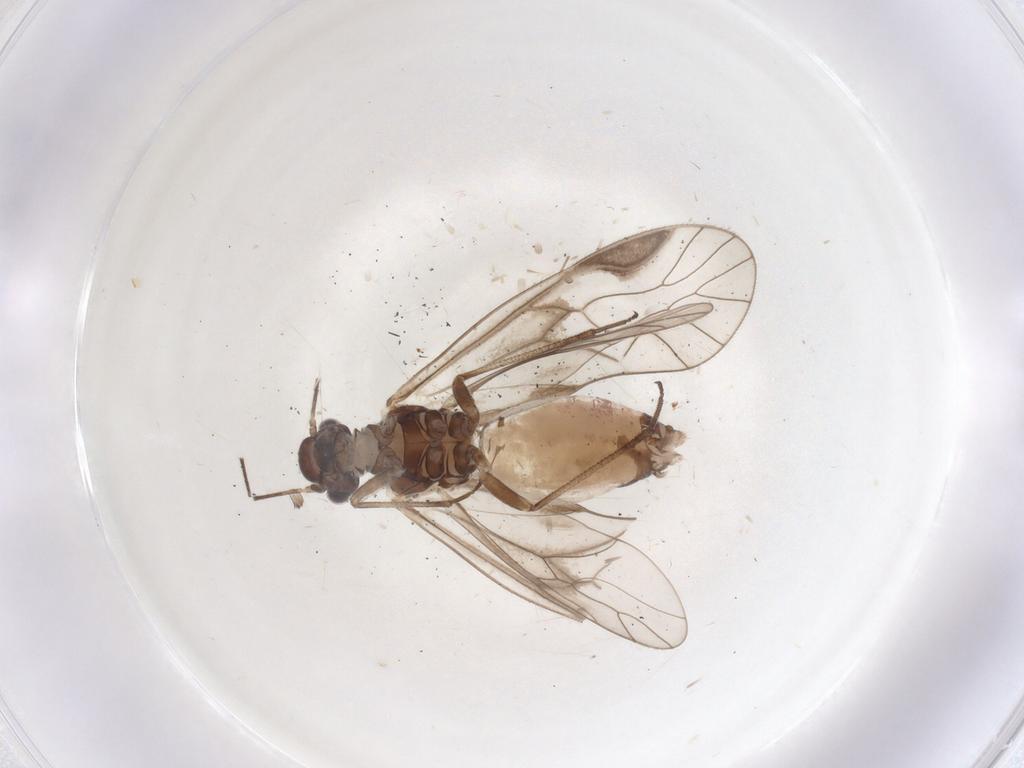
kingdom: Animalia
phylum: Arthropoda
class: Insecta
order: Psocodea
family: Elipsocidae
